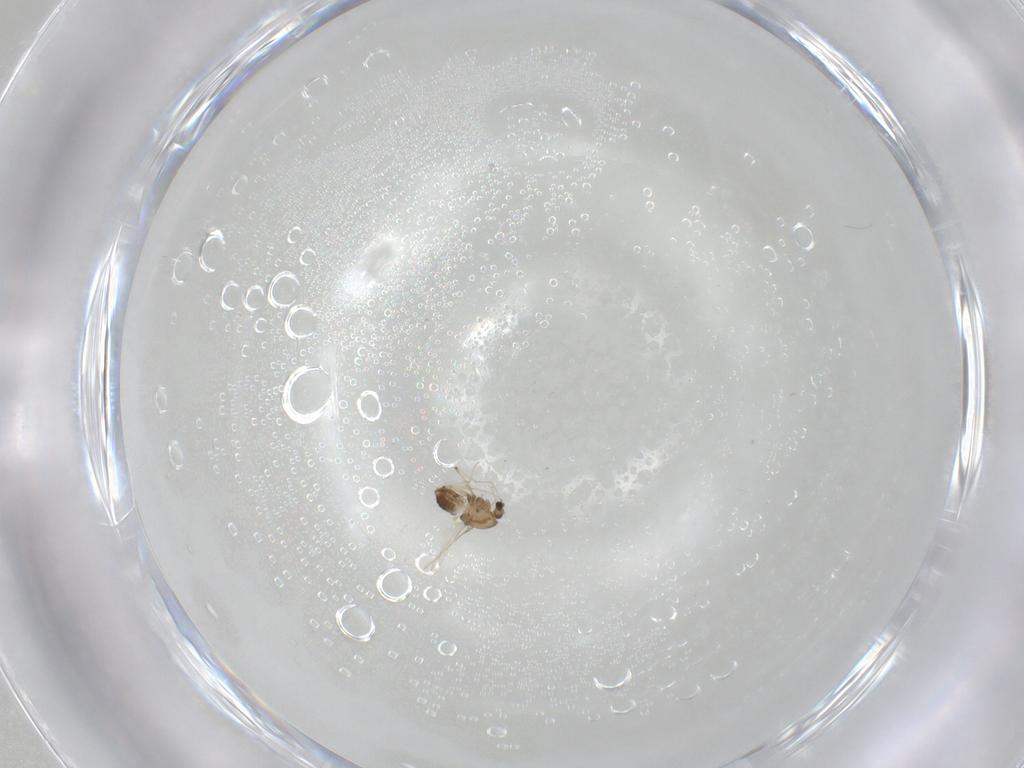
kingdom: Animalia
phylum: Arthropoda
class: Insecta
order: Diptera
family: Chironomidae
